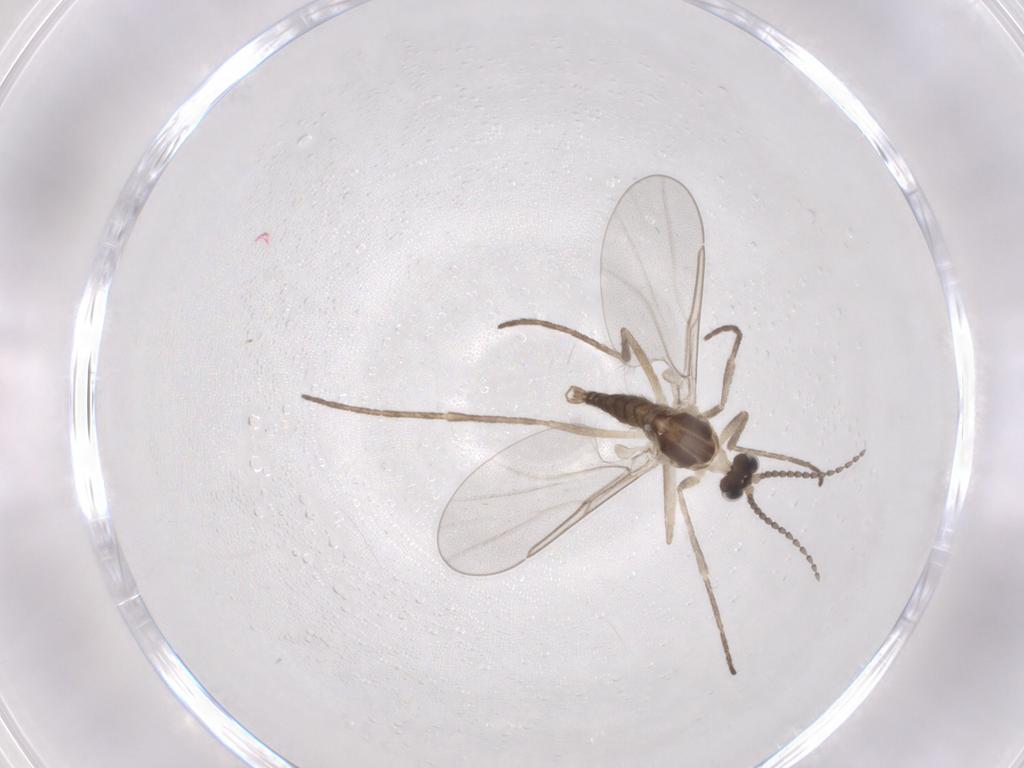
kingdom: Animalia
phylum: Arthropoda
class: Insecta
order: Diptera
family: Cecidomyiidae
